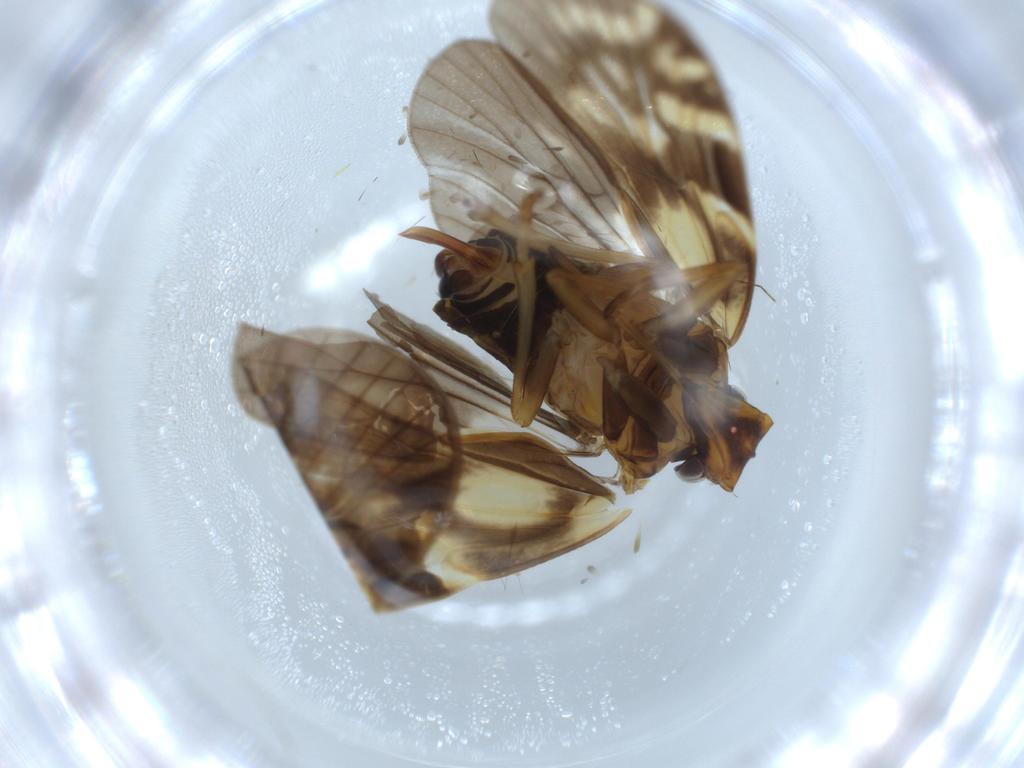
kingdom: Animalia
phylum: Arthropoda
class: Insecta
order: Hemiptera
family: Cixiidae
